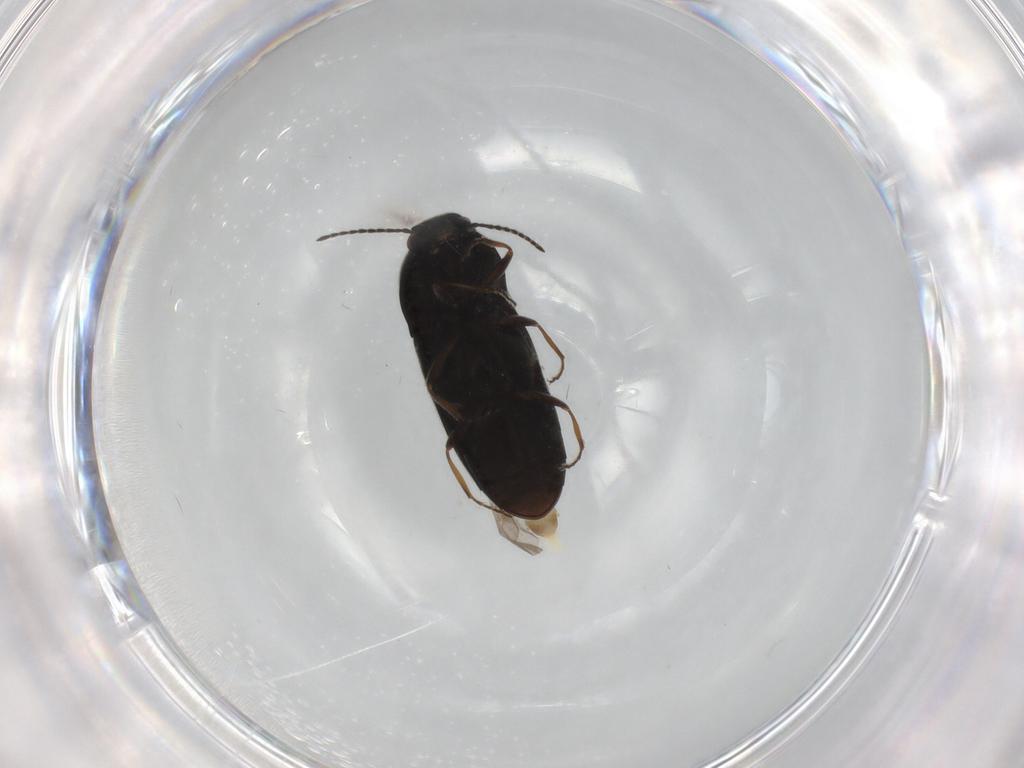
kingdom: Animalia
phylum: Arthropoda
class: Insecta
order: Coleoptera
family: Elateridae
